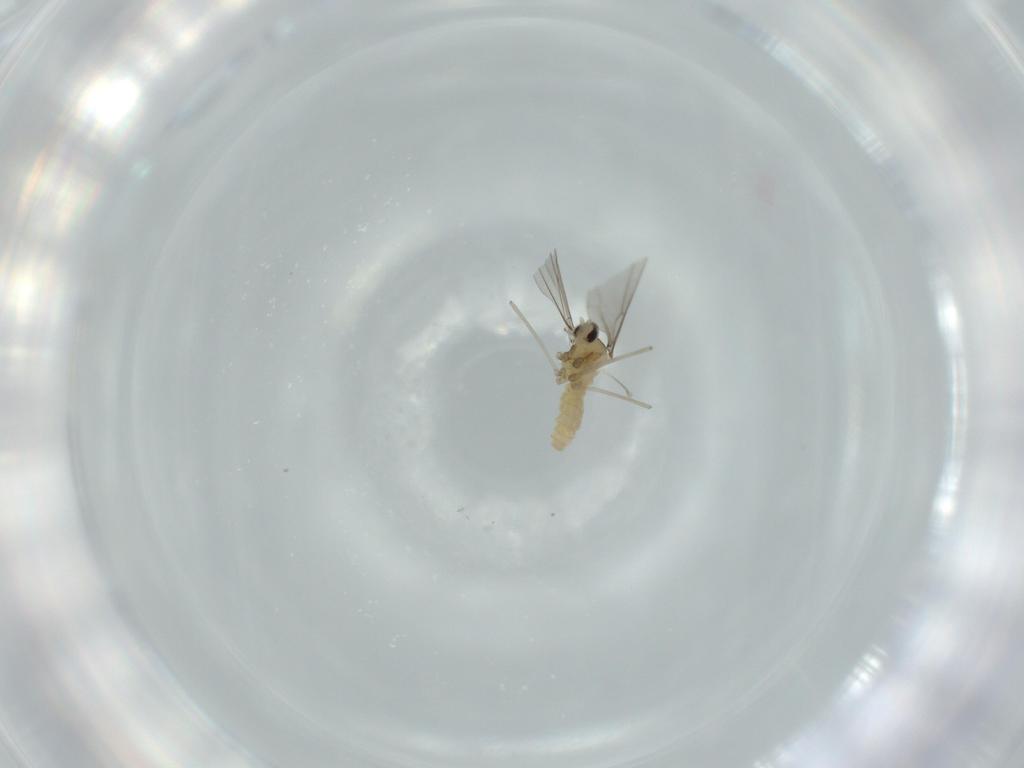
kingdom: Animalia
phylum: Arthropoda
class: Insecta
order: Diptera
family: Cecidomyiidae
